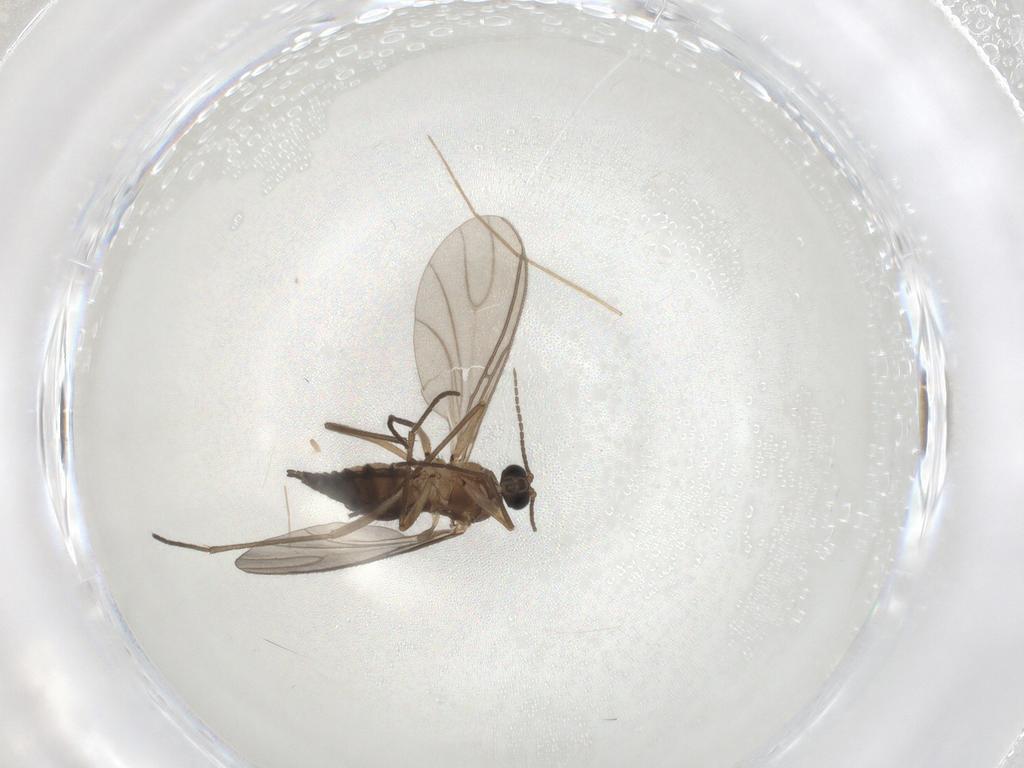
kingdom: Animalia
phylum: Arthropoda
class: Insecta
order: Diptera
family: Sciaridae
